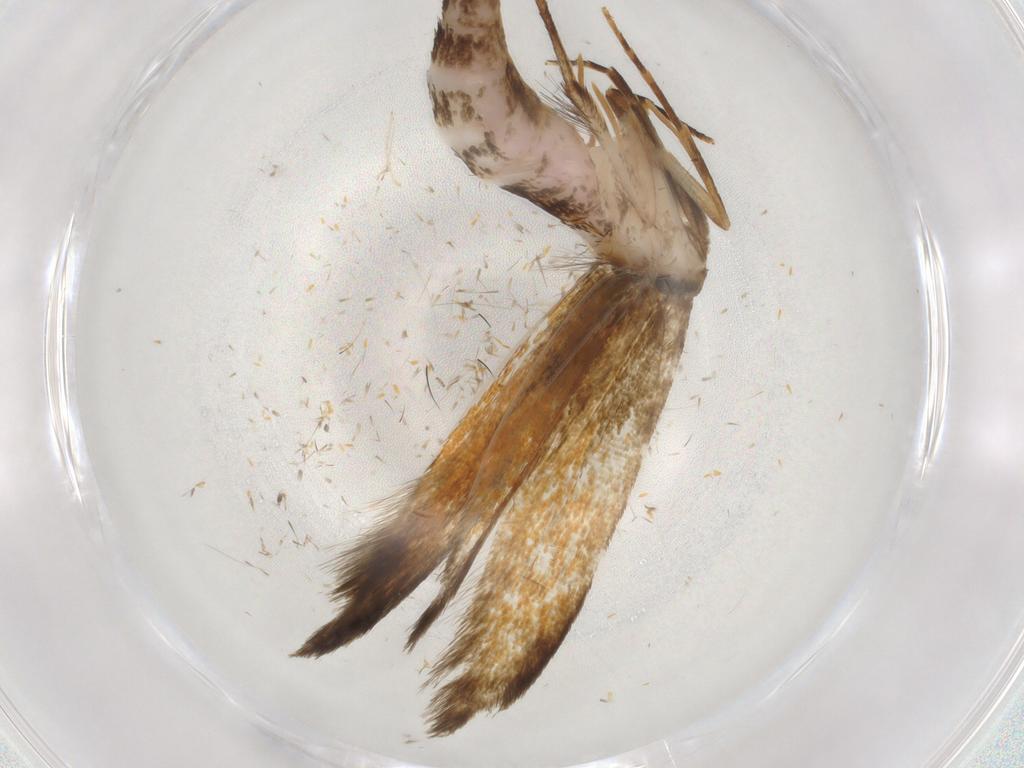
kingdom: Animalia
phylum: Arthropoda
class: Insecta
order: Lepidoptera
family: Tineidae
